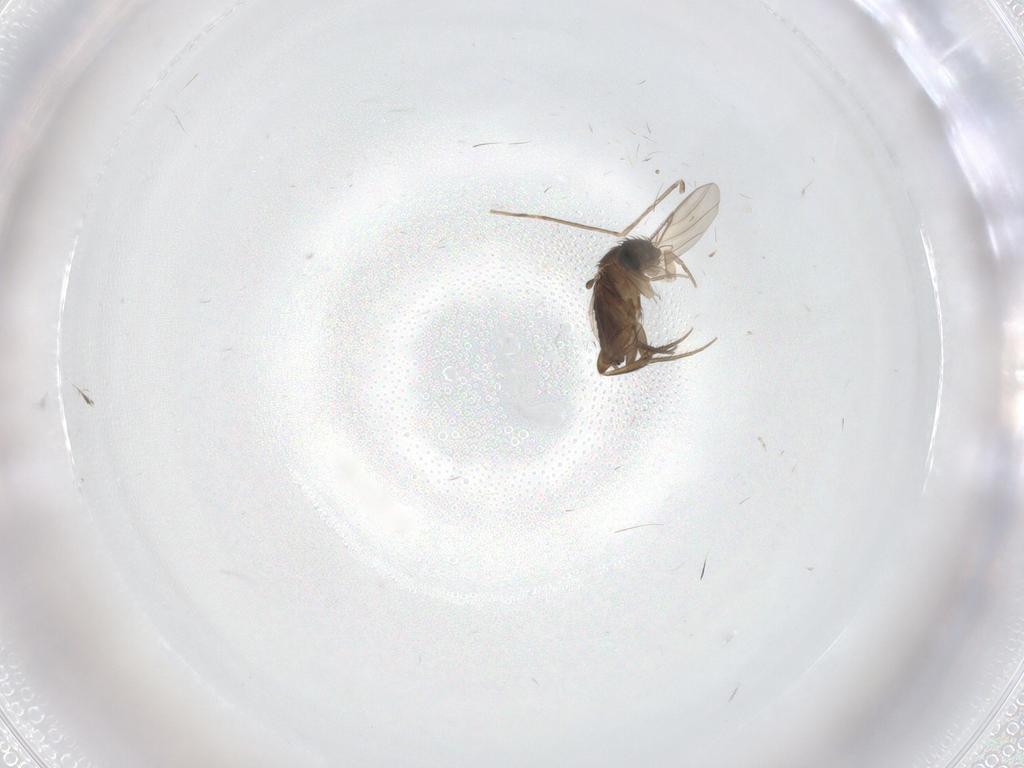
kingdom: Animalia
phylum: Arthropoda
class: Insecta
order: Diptera
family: Phoridae
